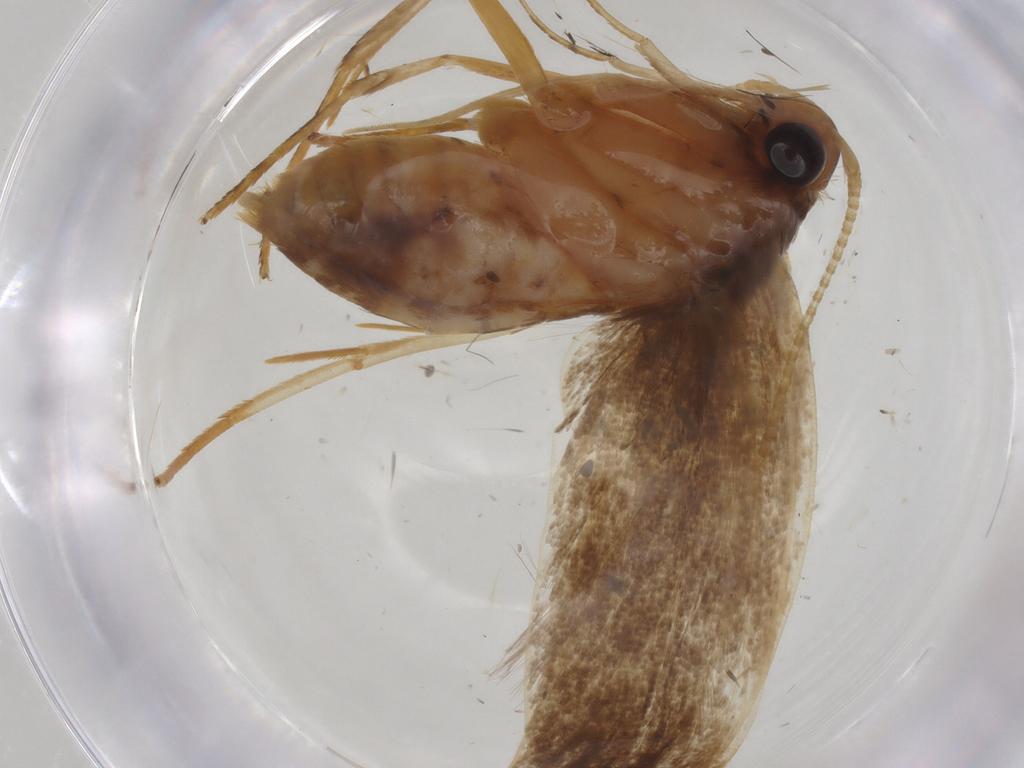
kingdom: Animalia
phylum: Arthropoda
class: Insecta
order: Lepidoptera
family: Lecithoceridae
